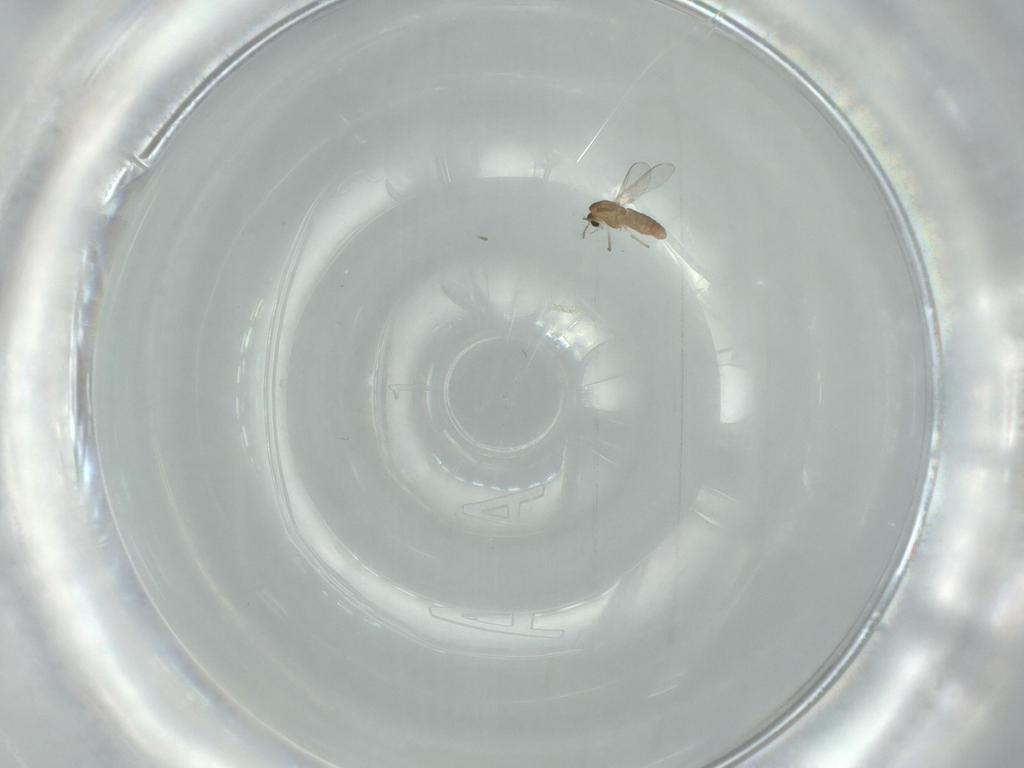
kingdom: Animalia
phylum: Arthropoda
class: Insecta
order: Diptera
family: Chironomidae
